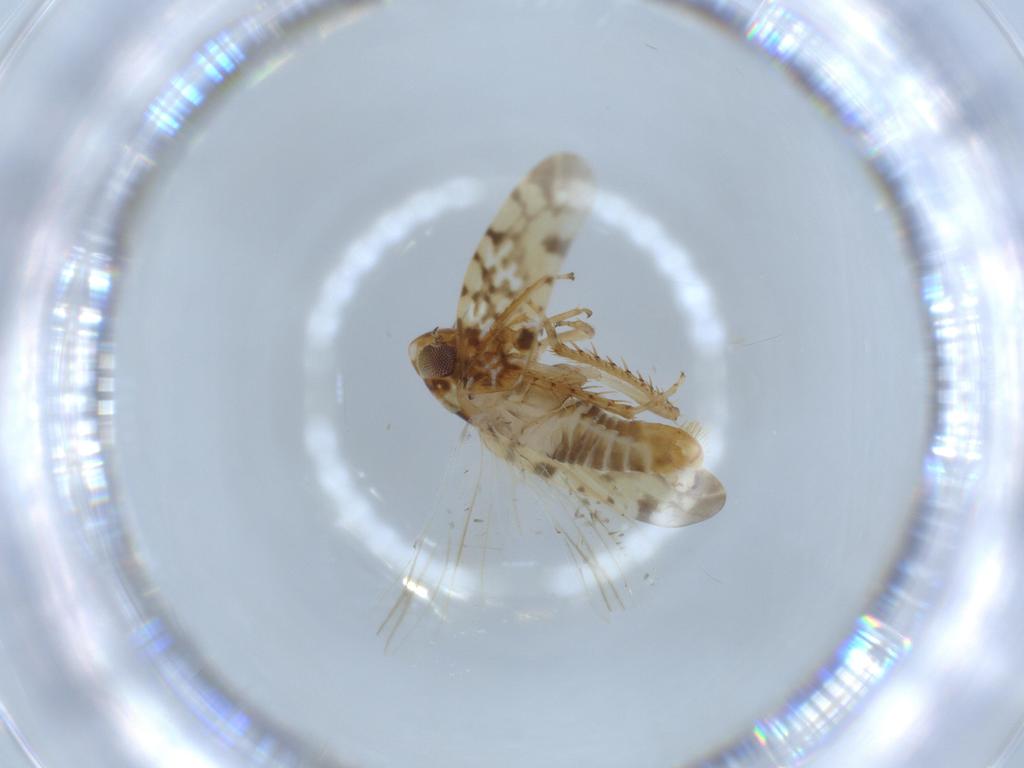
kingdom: Animalia
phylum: Arthropoda
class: Insecta
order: Hemiptera
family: Cicadellidae
